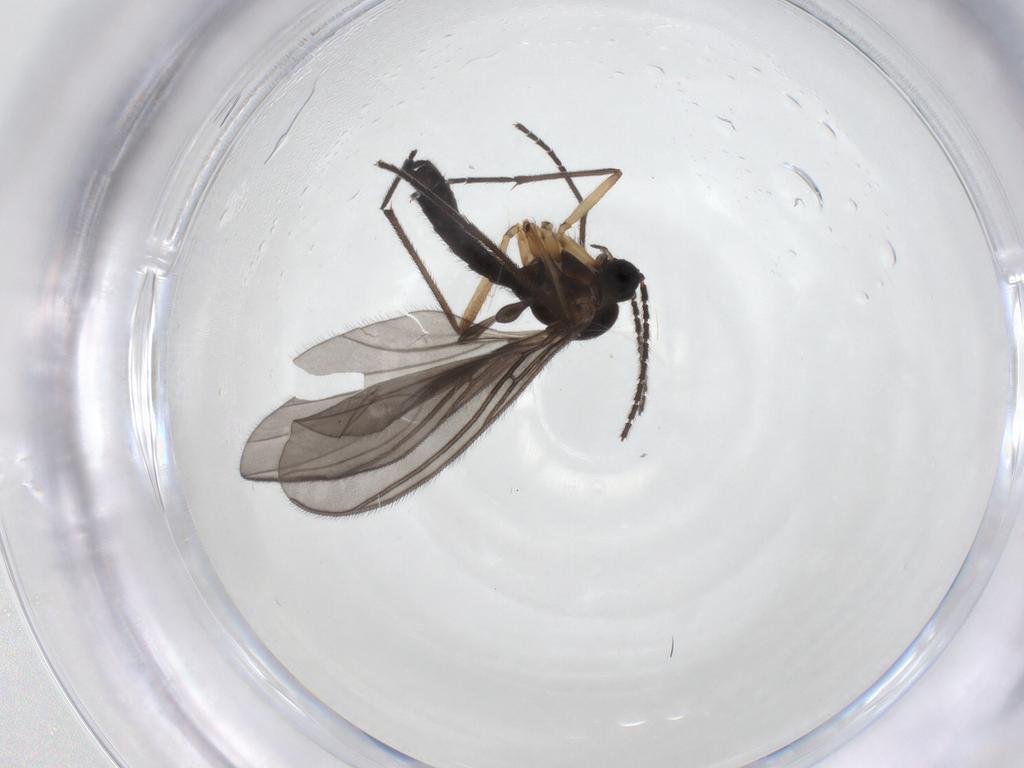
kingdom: Animalia
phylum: Arthropoda
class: Insecta
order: Diptera
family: Sciaridae
